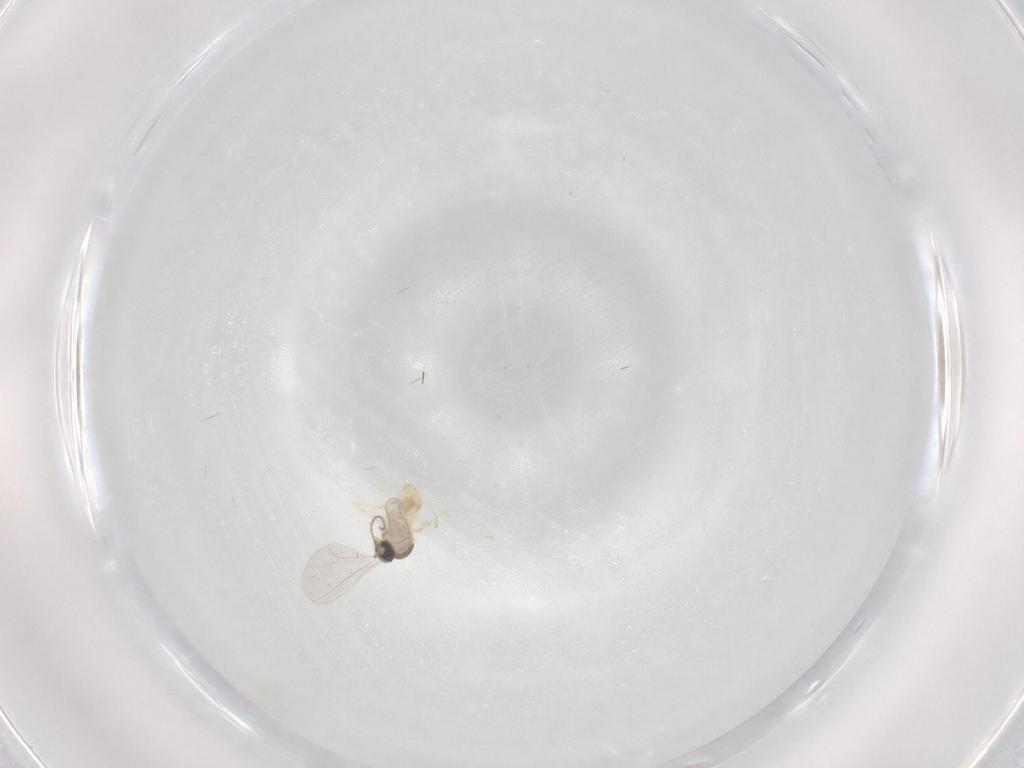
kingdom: Animalia
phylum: Arthropoda
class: Insecta
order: Diptera
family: Cecidomyiidae
